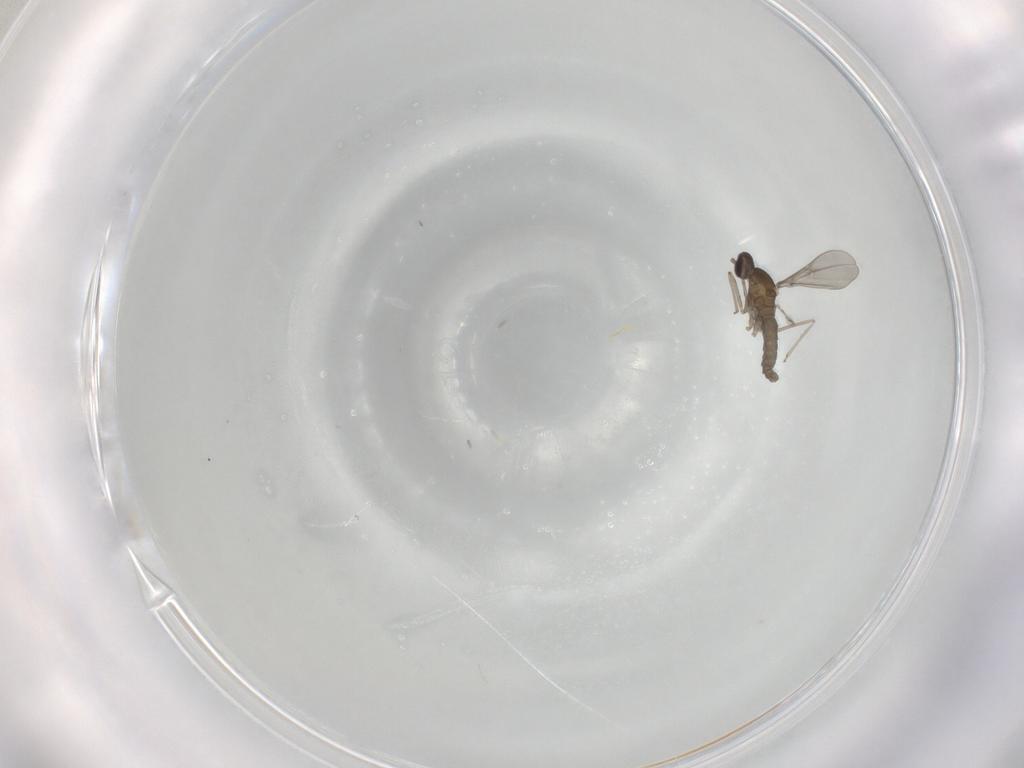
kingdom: Animalia
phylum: Arthropoda
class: Insecta
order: Diptera
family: Cecidomyiidae
